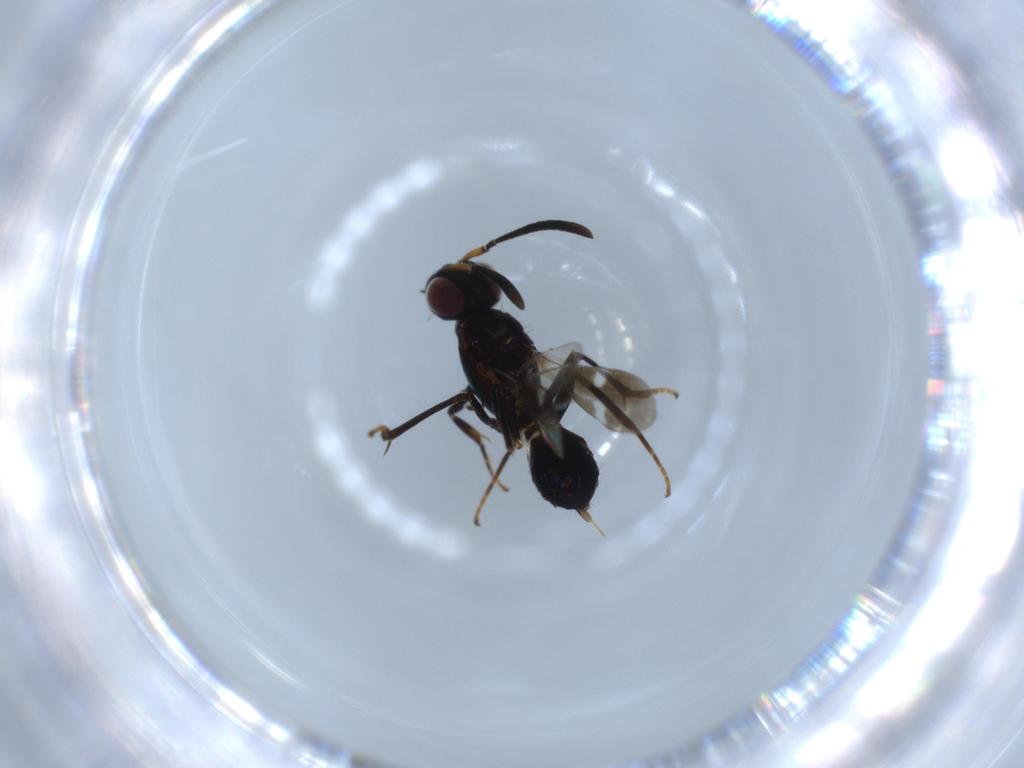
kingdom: Animalia
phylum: Arthropoda
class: Insecta
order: Hymenoptera
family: Eupelmidae
